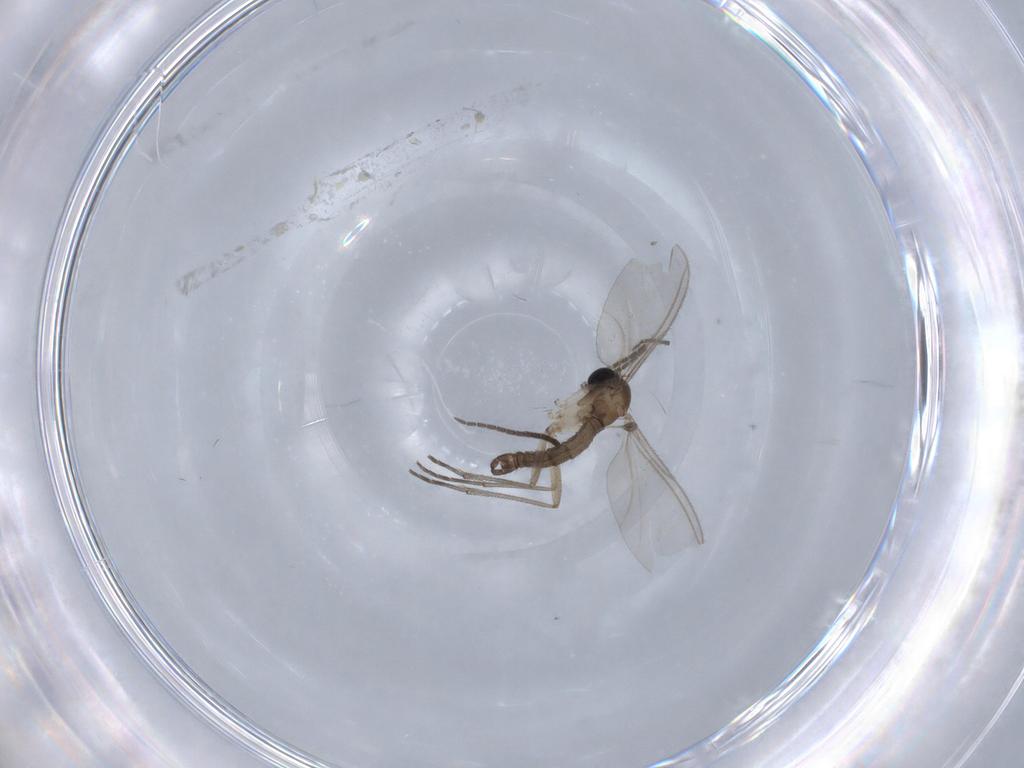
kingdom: Animalia
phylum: Arthropoda
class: Insecta
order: Diptera
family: Sciaridae
